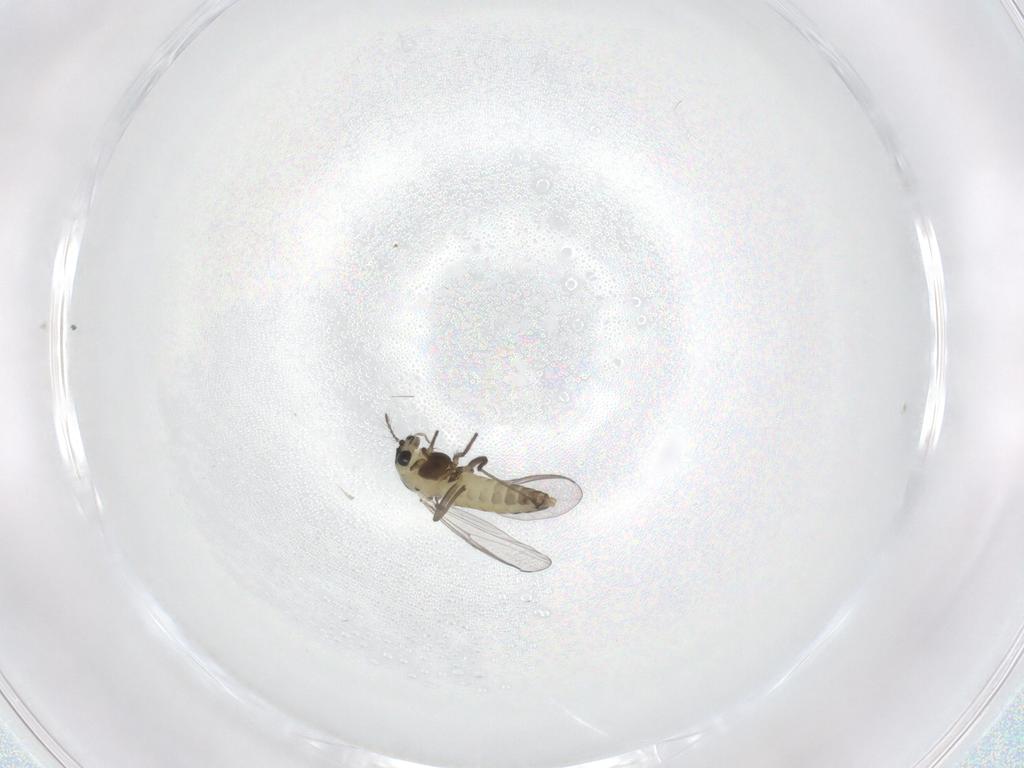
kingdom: Animalia
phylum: Arthropoda
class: Insecta
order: Diptera
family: Chironomidae
